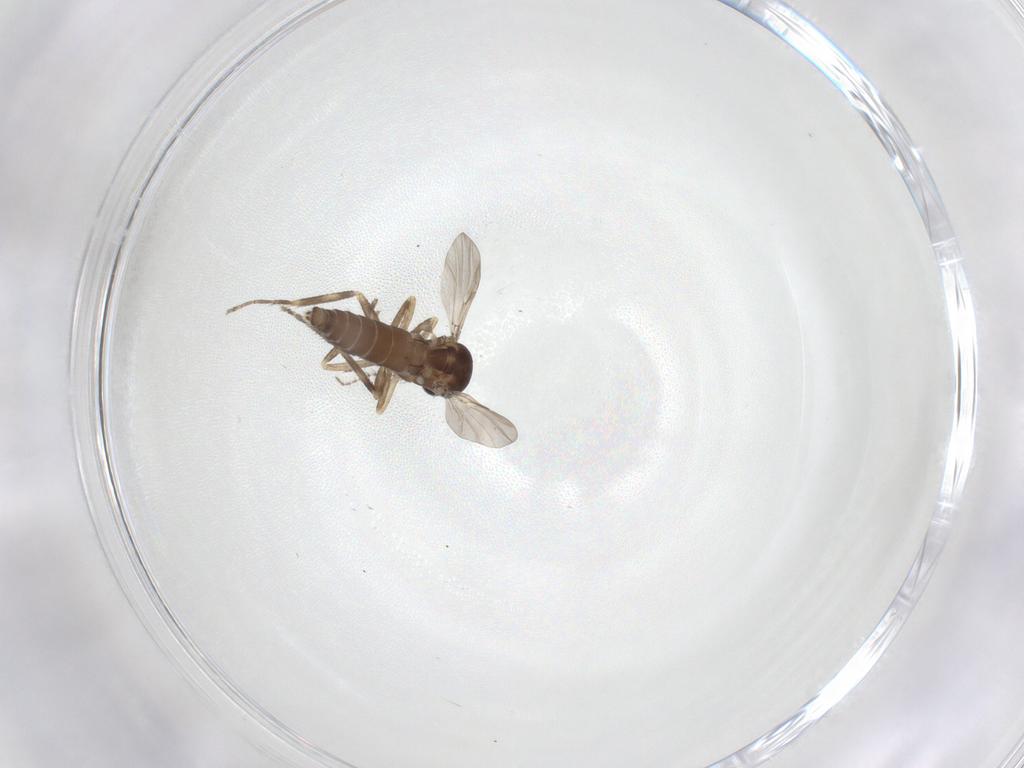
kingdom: Animalia
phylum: Arthropoda
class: Insecta
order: Diptera
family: Ceratopogonidae
